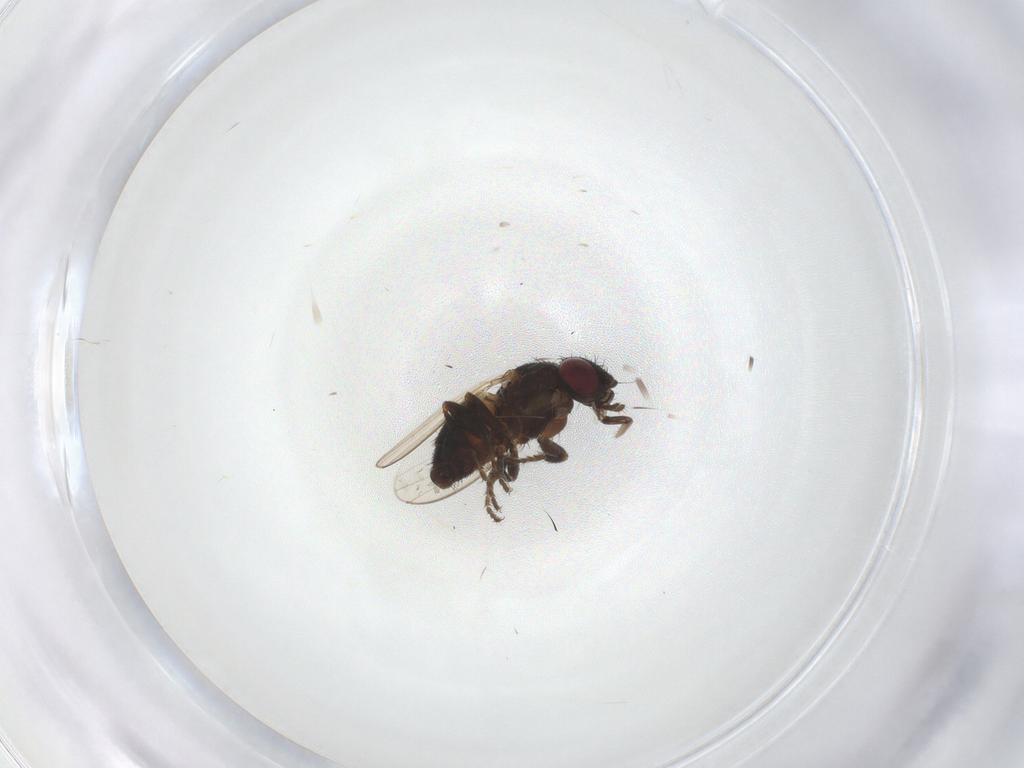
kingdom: Animalia
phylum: Arthropoda
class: Insecta
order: Diptera
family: Milichiidae
